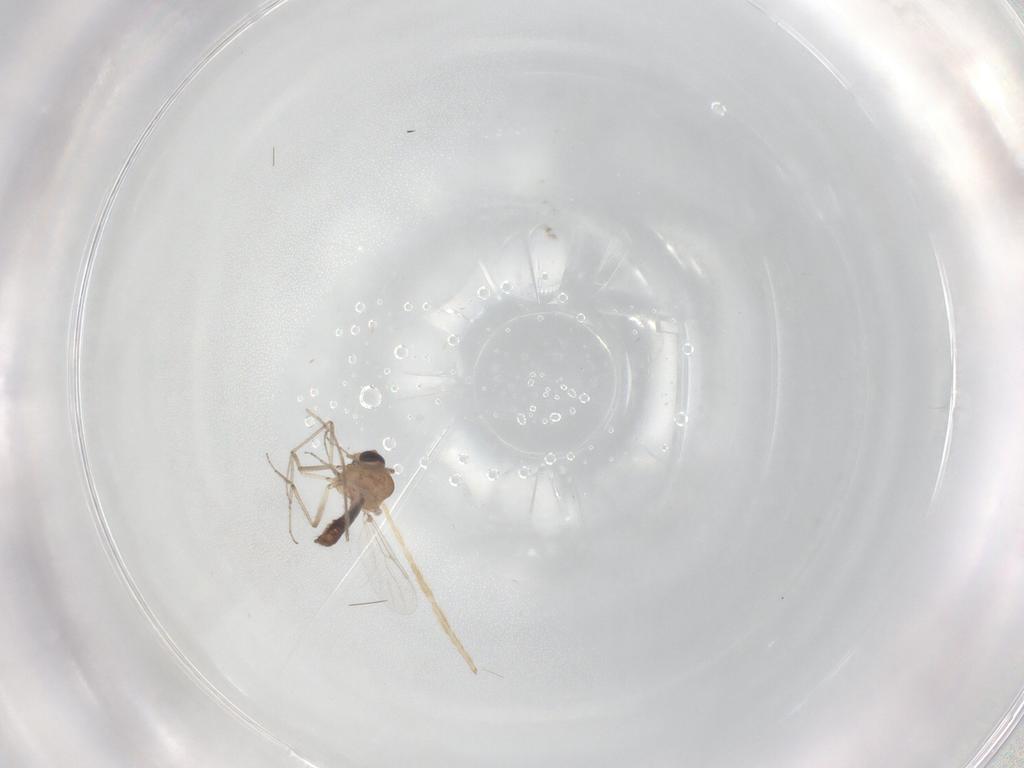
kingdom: Animalia
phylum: Arthropoda
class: Insecta
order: Diptera
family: Chironomidae
